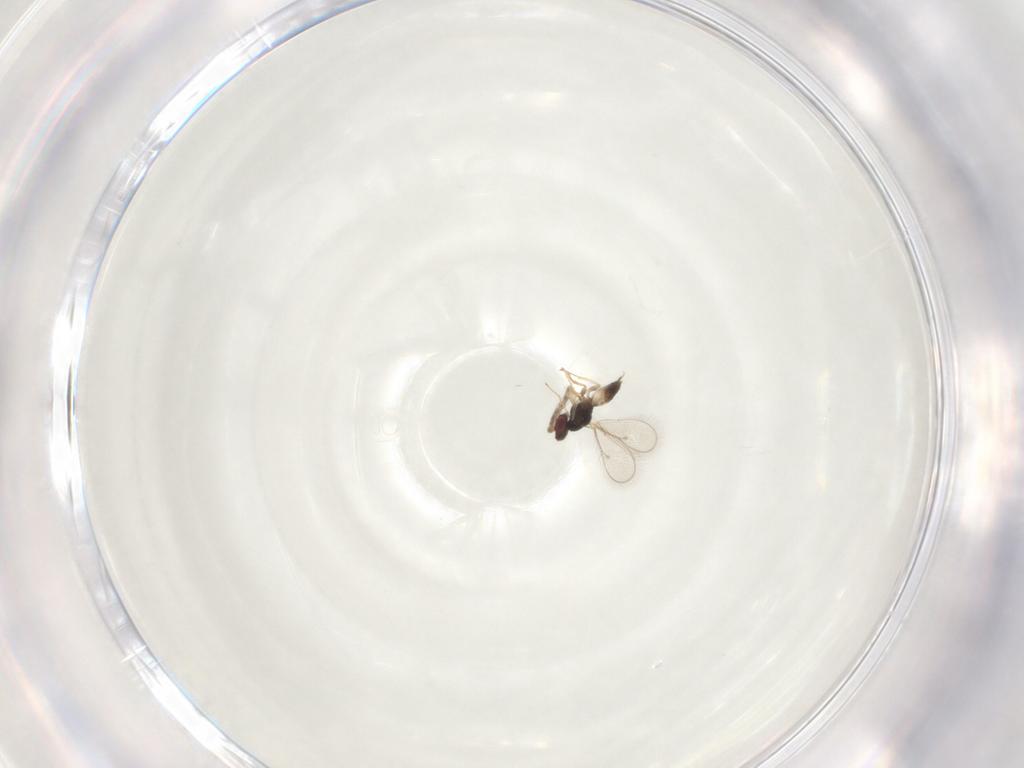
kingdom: Animalia
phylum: Arthropoda
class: Insecta
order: Hymenoptera
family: Eulophidae
